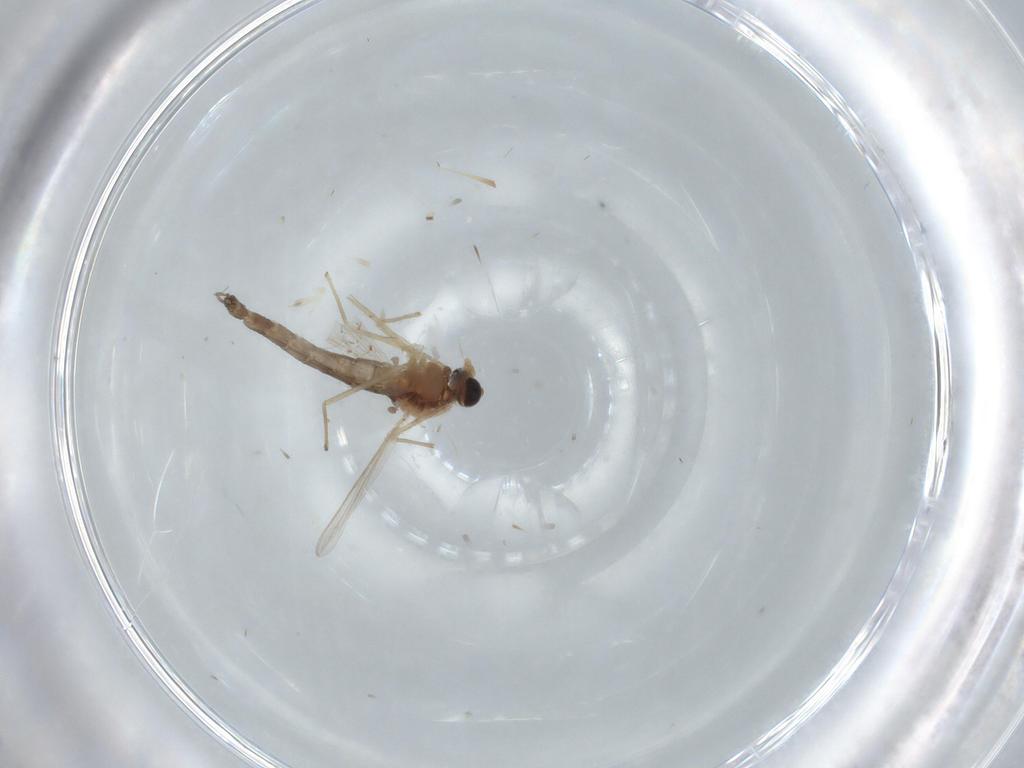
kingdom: Animalia
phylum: Arthropoda
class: Insecta
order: Diptera
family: Chironomidae
